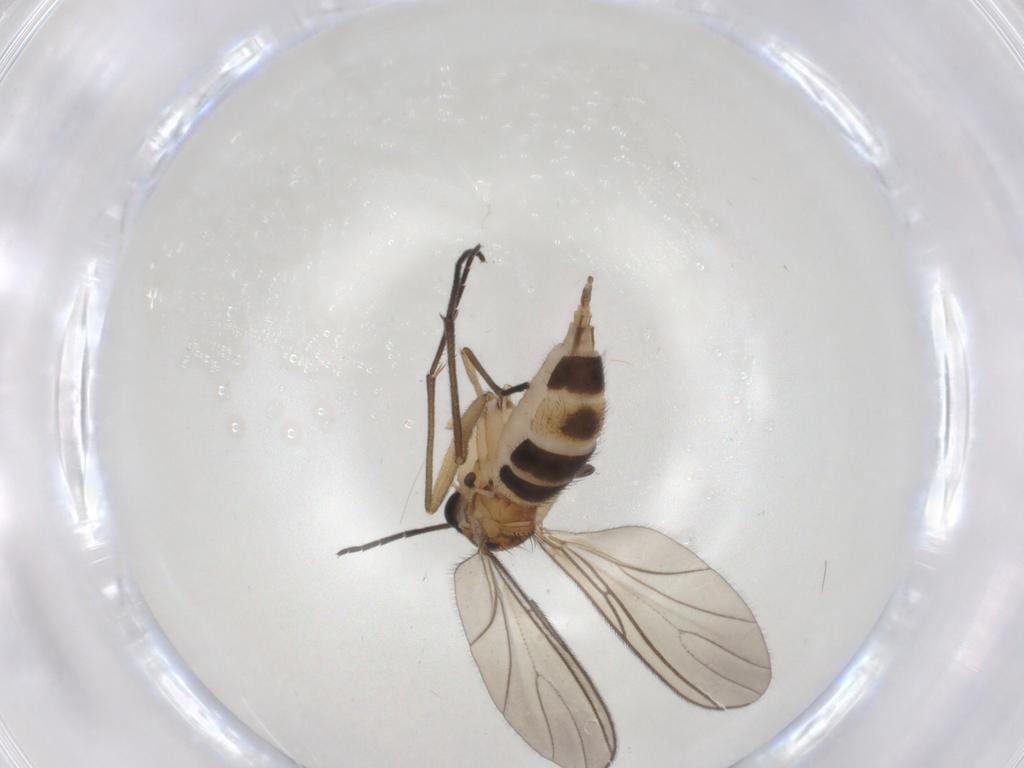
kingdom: Animalia
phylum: Arthropoda
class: Insecta
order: Diptera
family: Sciaridae
